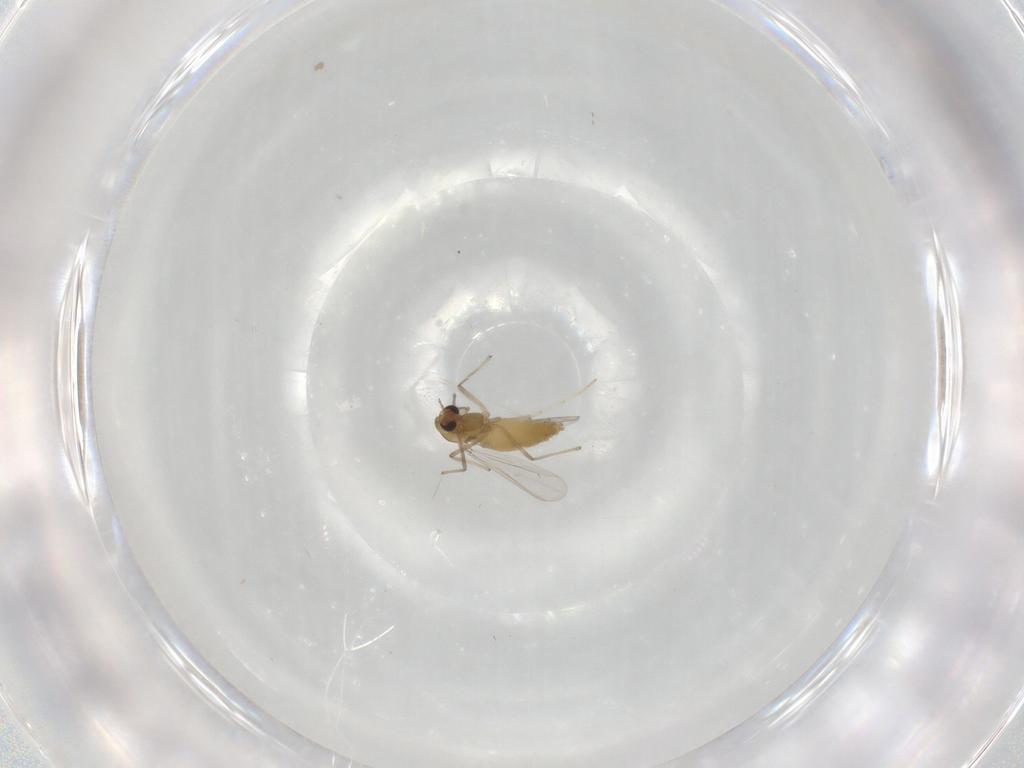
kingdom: Animalia
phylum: Arthropoda
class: Insecta
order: Diptera
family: Chironomidae
